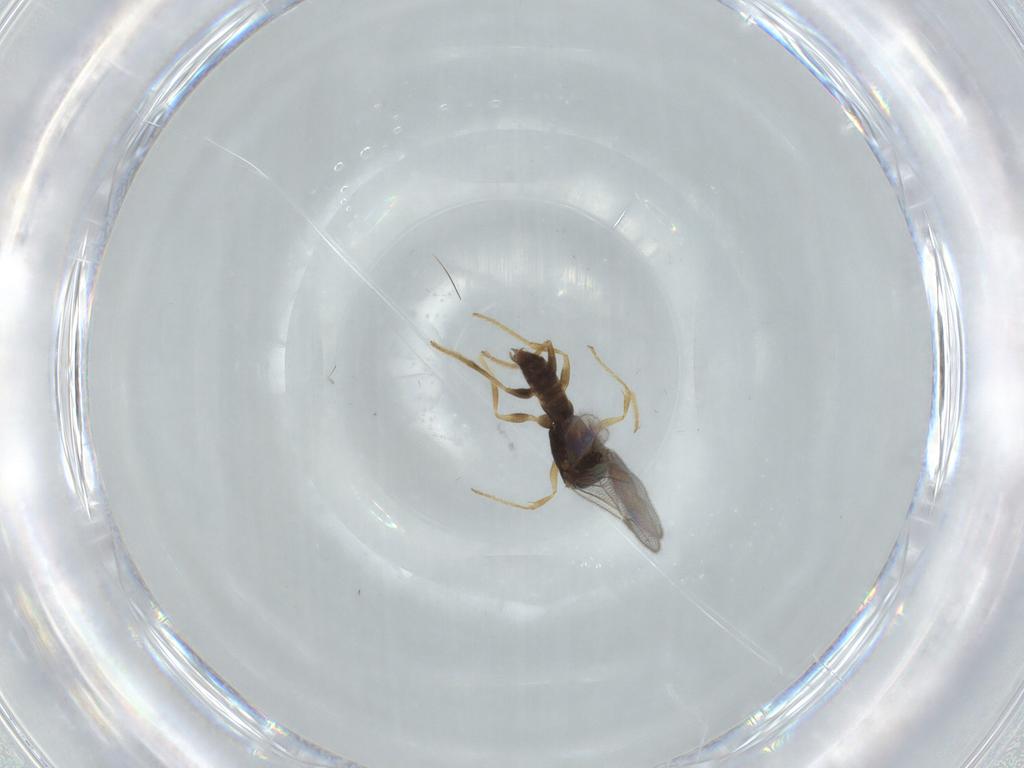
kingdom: Animalia
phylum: Arthropoda
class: Insecta
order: Hymenoptera
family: Dryinidae
